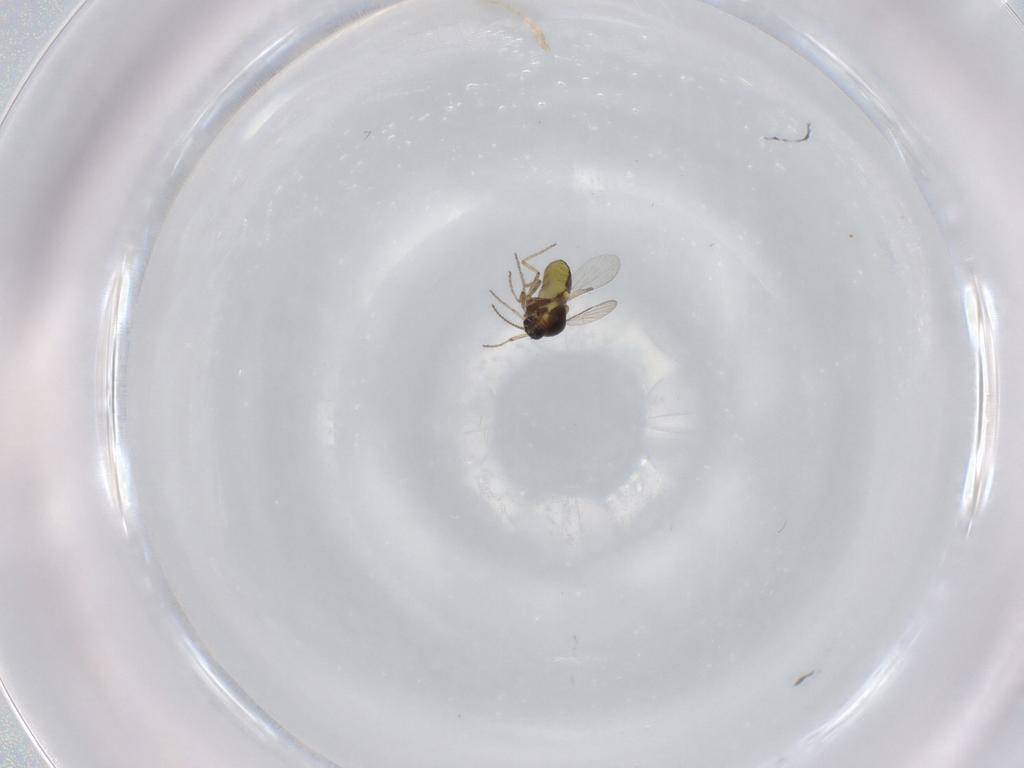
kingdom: Animalia
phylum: Arthropoda
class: Insecta
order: Diptera
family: Ceratopogonidae
